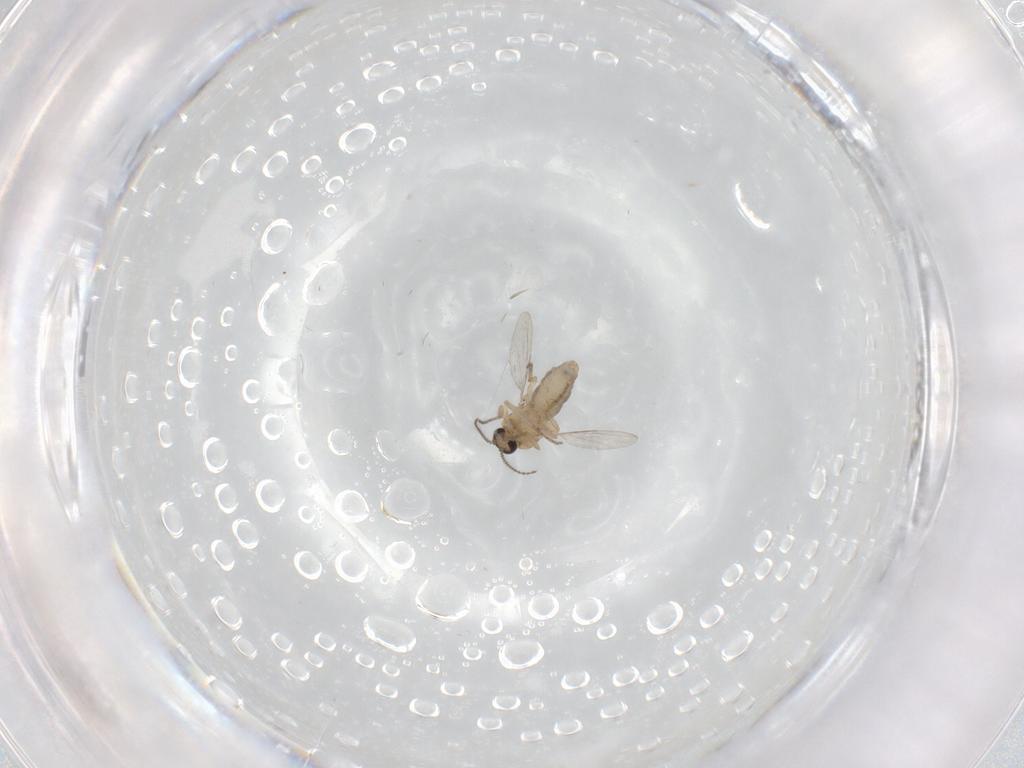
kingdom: Animalia
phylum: Arthropoda
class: Insecta
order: Diptera
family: Ceratopogonidae
